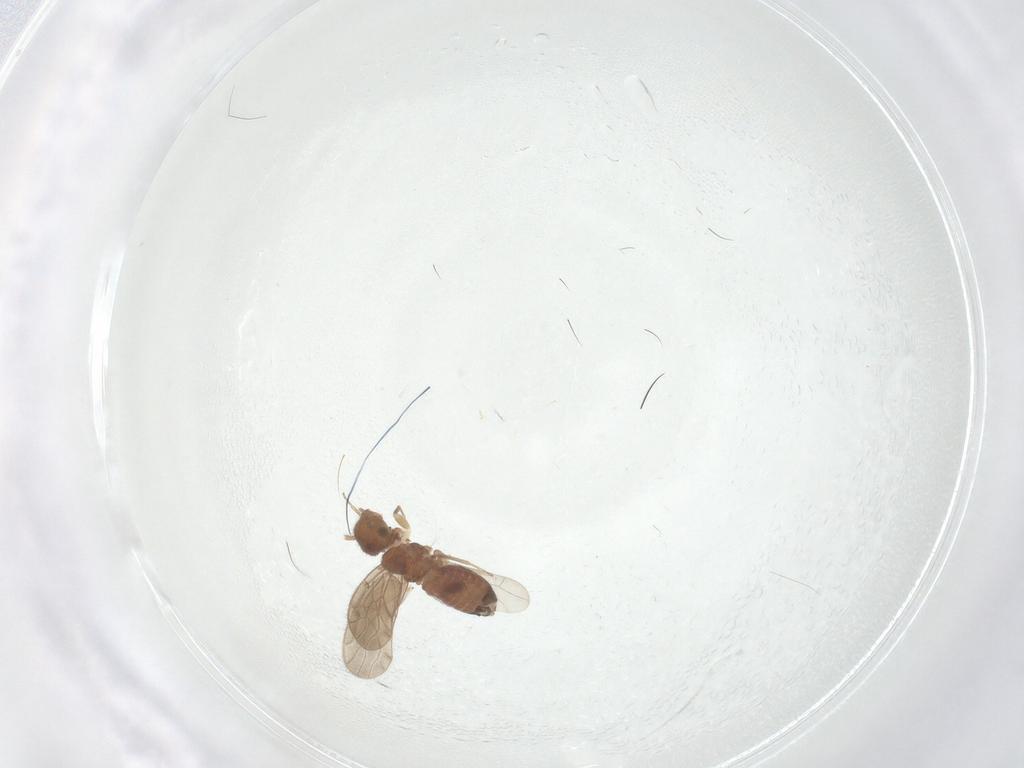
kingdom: Animalia
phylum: Arthropoda
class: Insecta
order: Psocodea
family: Ectopsocidae
